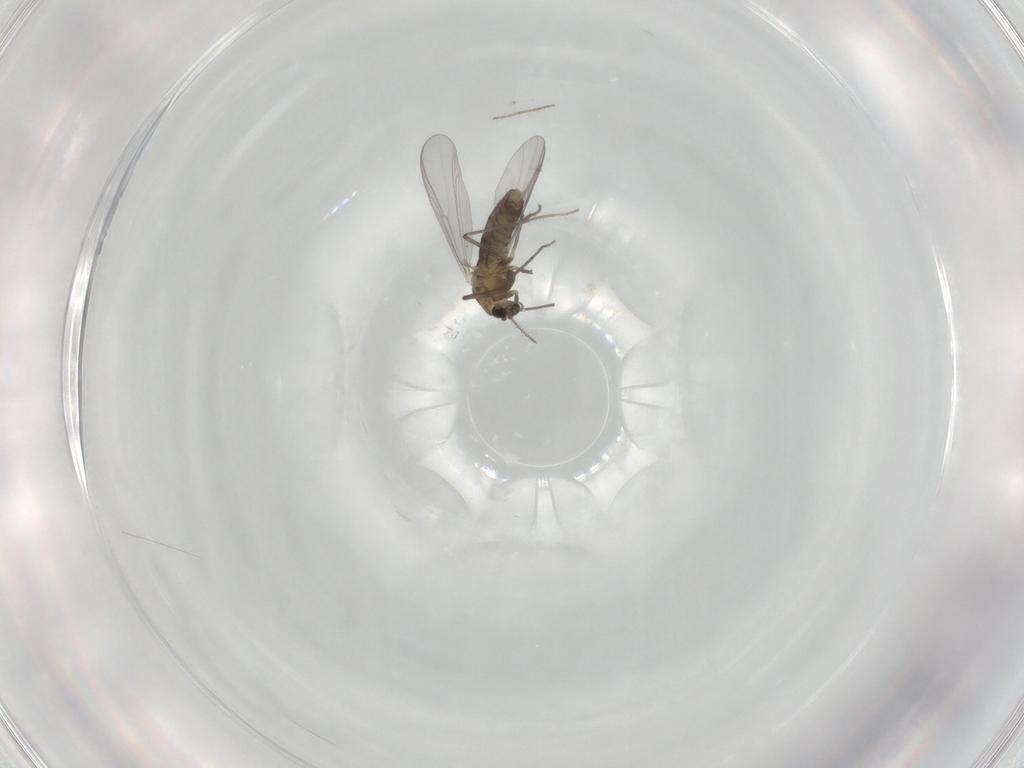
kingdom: Animalia
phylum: Arthropoda
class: Insecta
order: Diptera
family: Chironomidae
